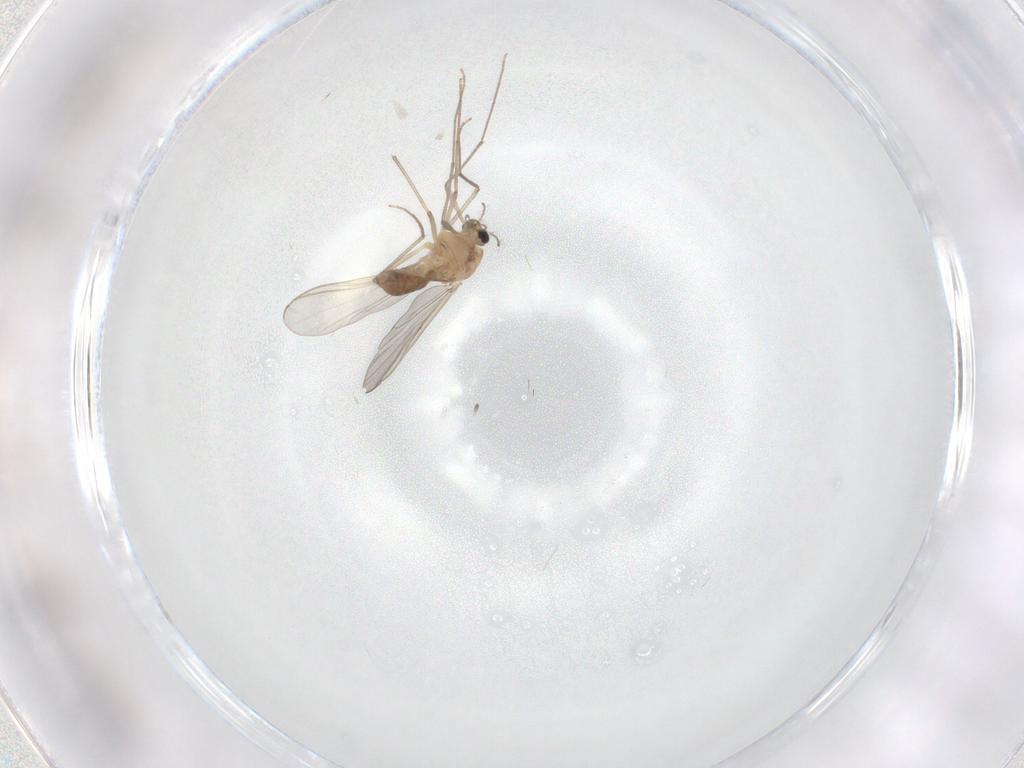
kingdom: Animalia
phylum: Arthropoda
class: Insecta
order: Diptera
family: Chironomidae
